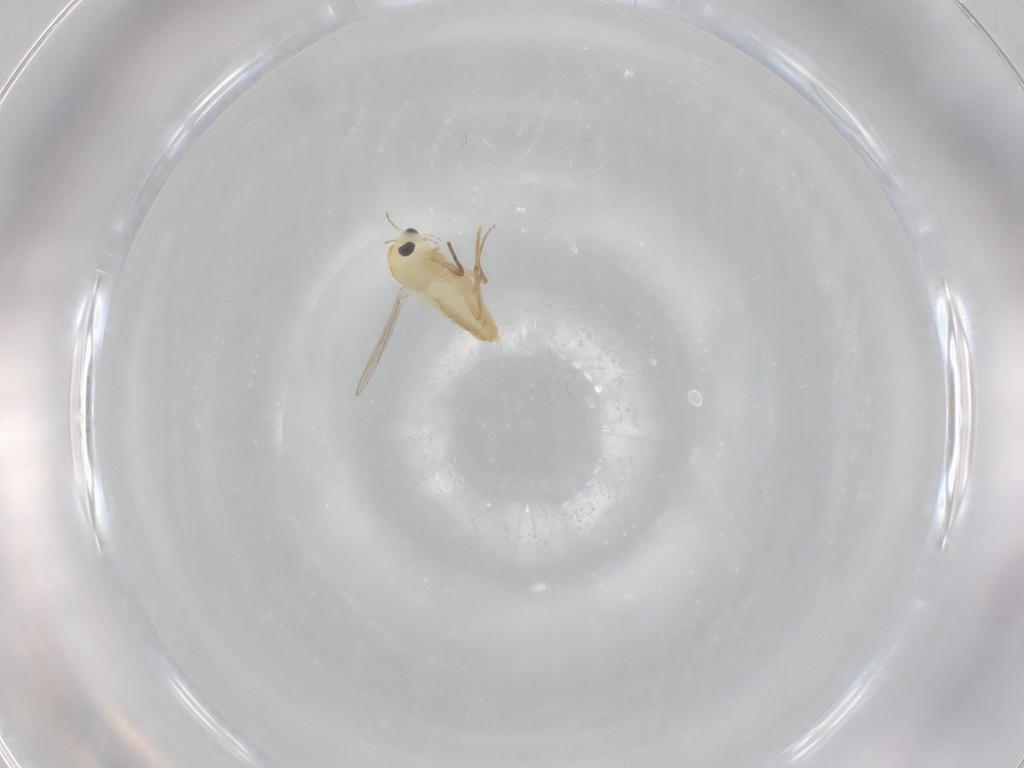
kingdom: Animalia
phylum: Arthropoda
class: Insecta
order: Diptera
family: Chironomidae
